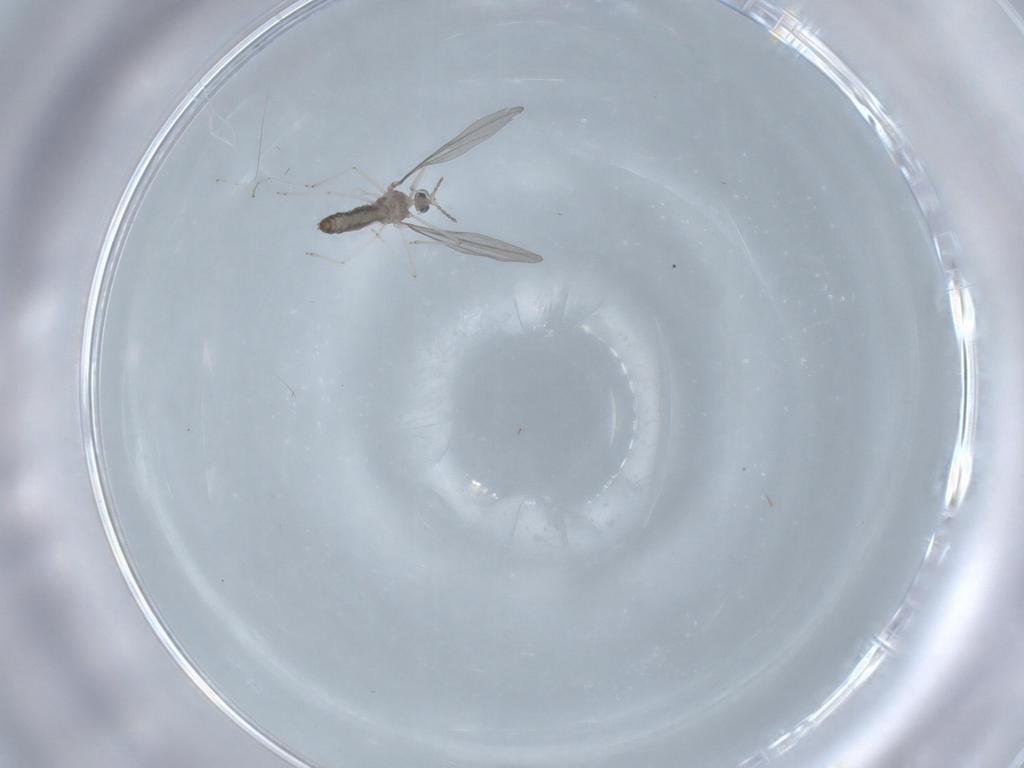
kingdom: Animalia
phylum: Arthropoda
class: Insecta
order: Diptera
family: Cecidomyiidae
